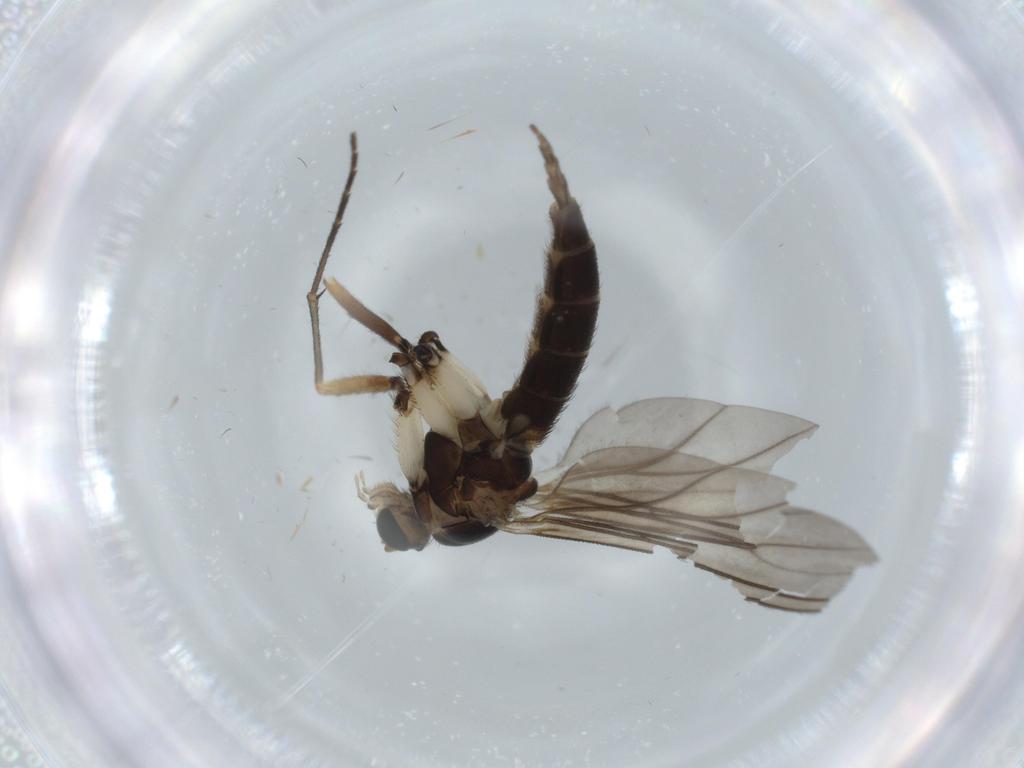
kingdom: Animalia
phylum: Arthropoda
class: Insecta
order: Diptera
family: Sciaridae
